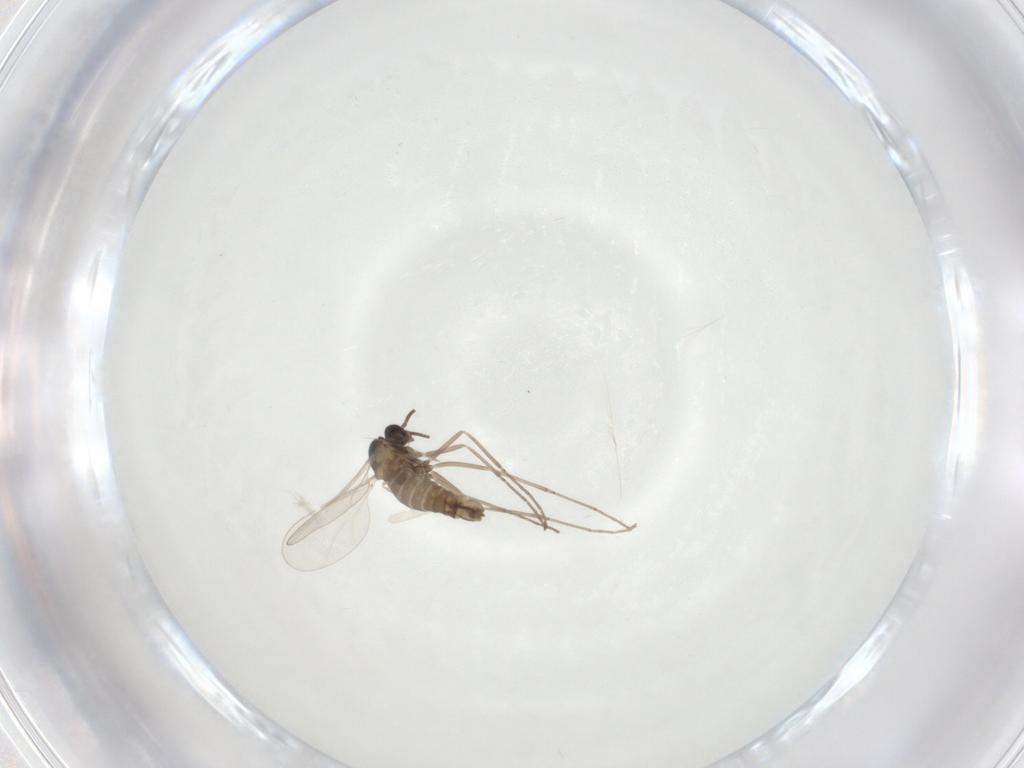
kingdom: Animalia
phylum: Arthropoda
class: Insecta
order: Diptera
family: Cecidomyiidae
